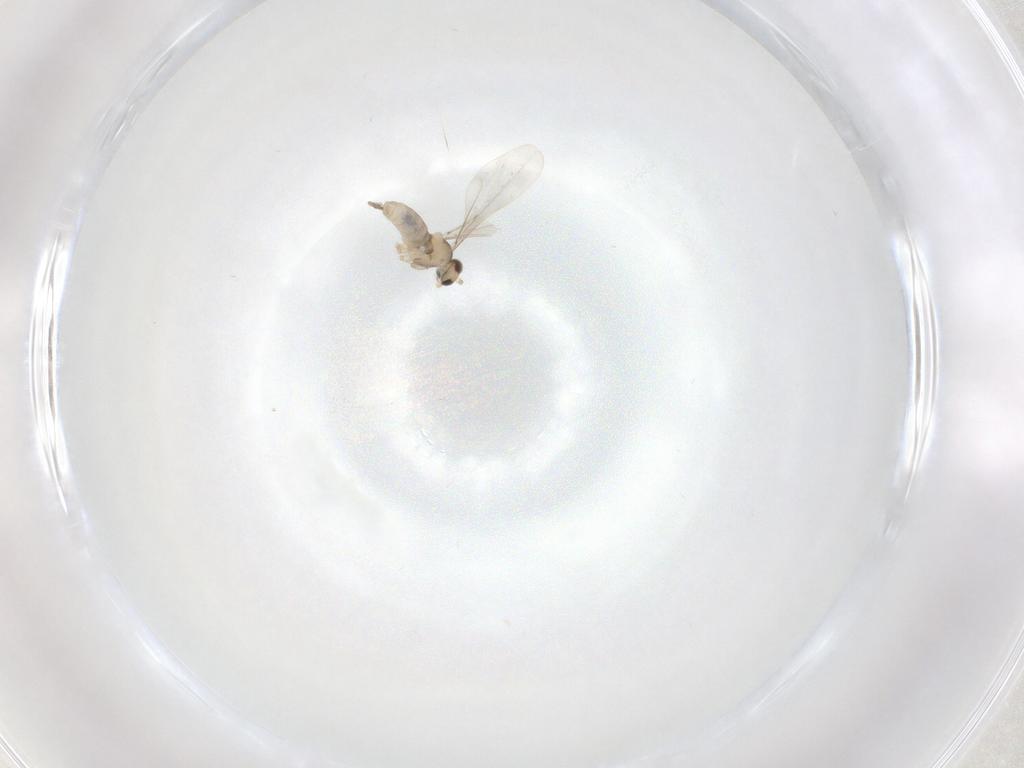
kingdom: Animalia
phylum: Arthropoda
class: Insecta
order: Diptera
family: Cecidomyiidae
